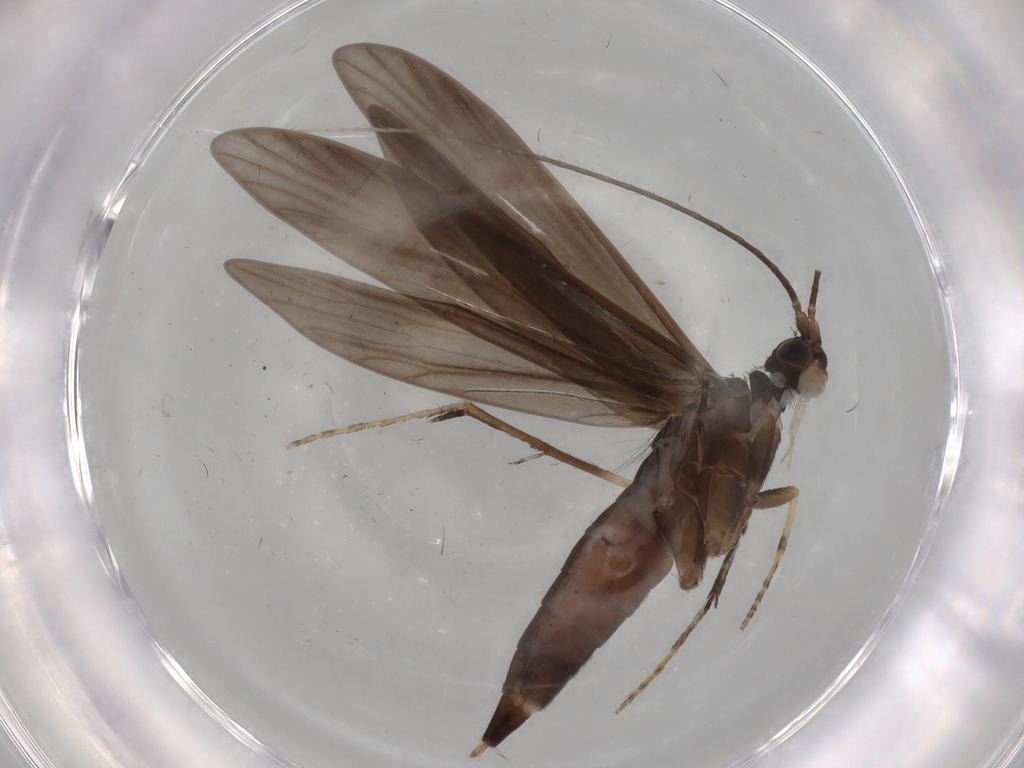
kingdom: Animalia
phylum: Arthropoda
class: Insecta
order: Trichoptera
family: Xiphocentronidae
